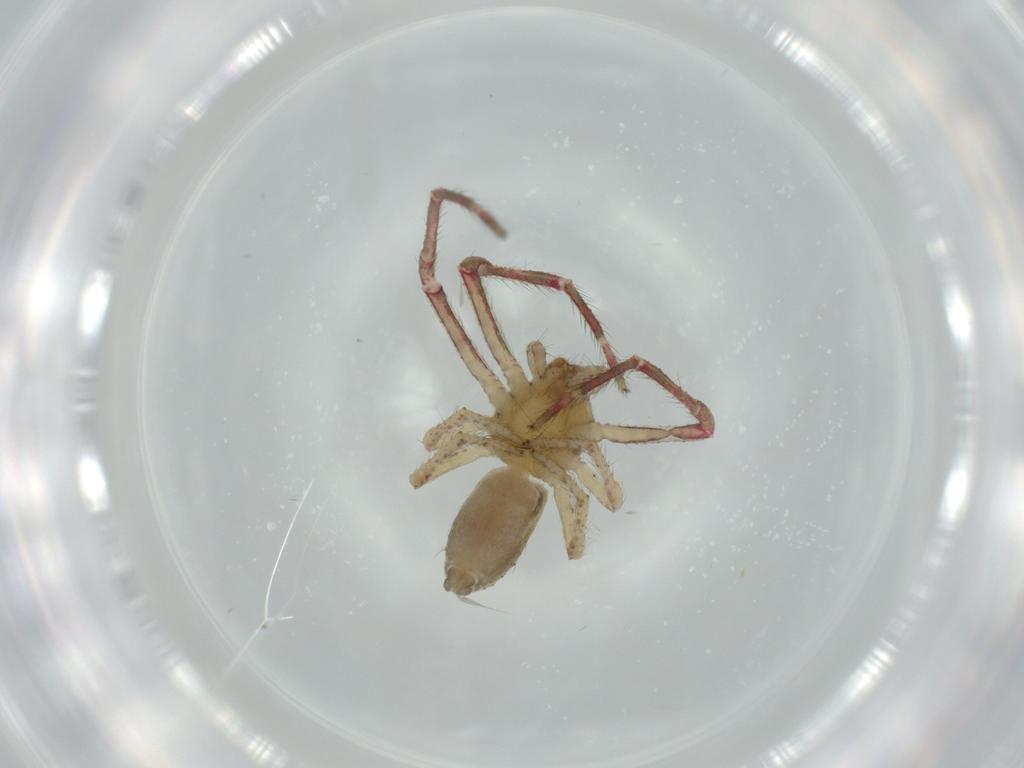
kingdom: Animalia
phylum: Arthropoda
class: Arachnida
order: Araneae
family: Thomisidae
